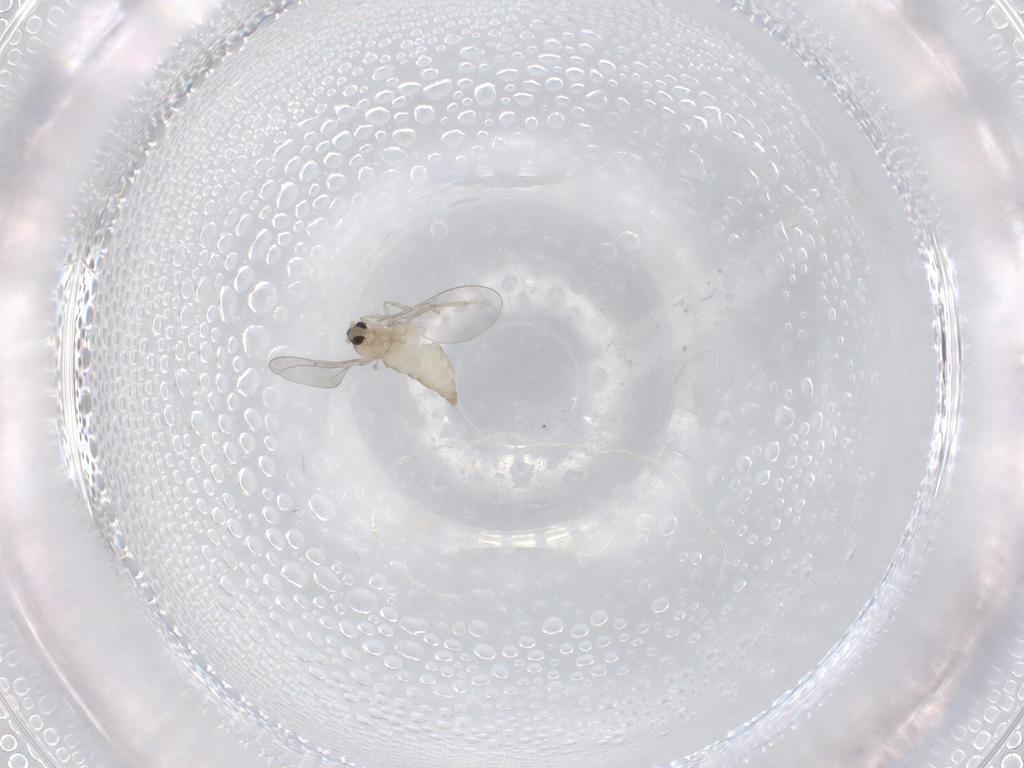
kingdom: Animalia
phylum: Arthropoda
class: Insecta
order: Diptera
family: Cecidomyiidae
